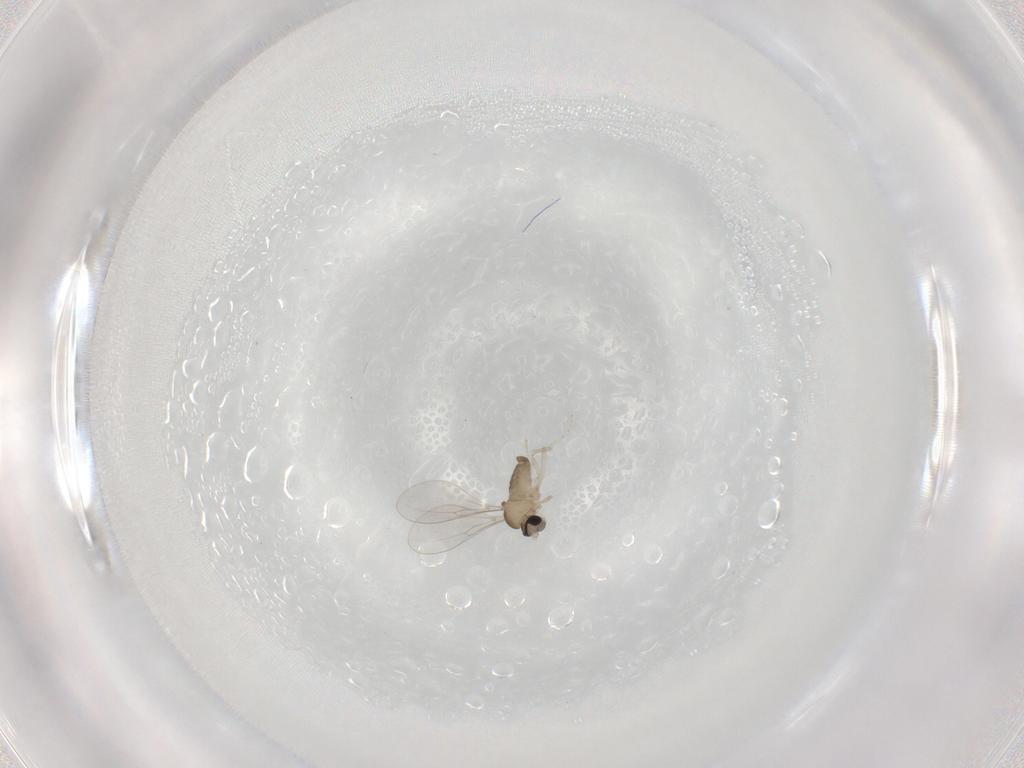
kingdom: Animalia
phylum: Arthropoda
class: Insecta
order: Diptera
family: Cecidomyiidae
